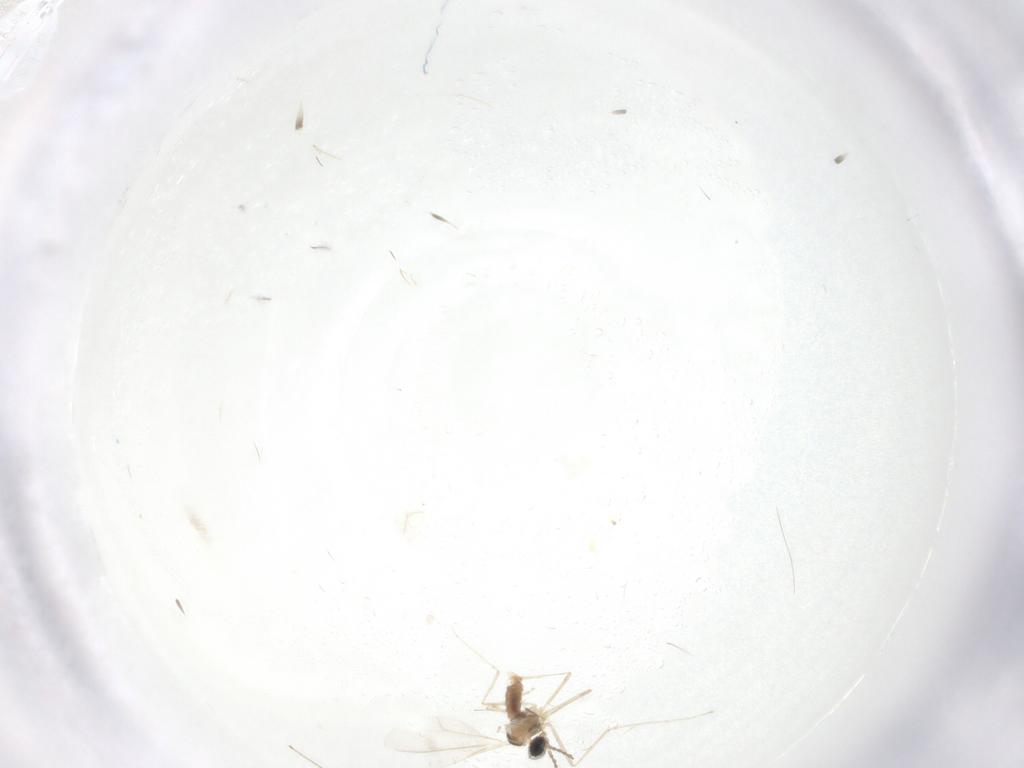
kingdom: Animalia
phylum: Arthropoda
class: Insecta
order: Diptera
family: Cecidomyiidae
